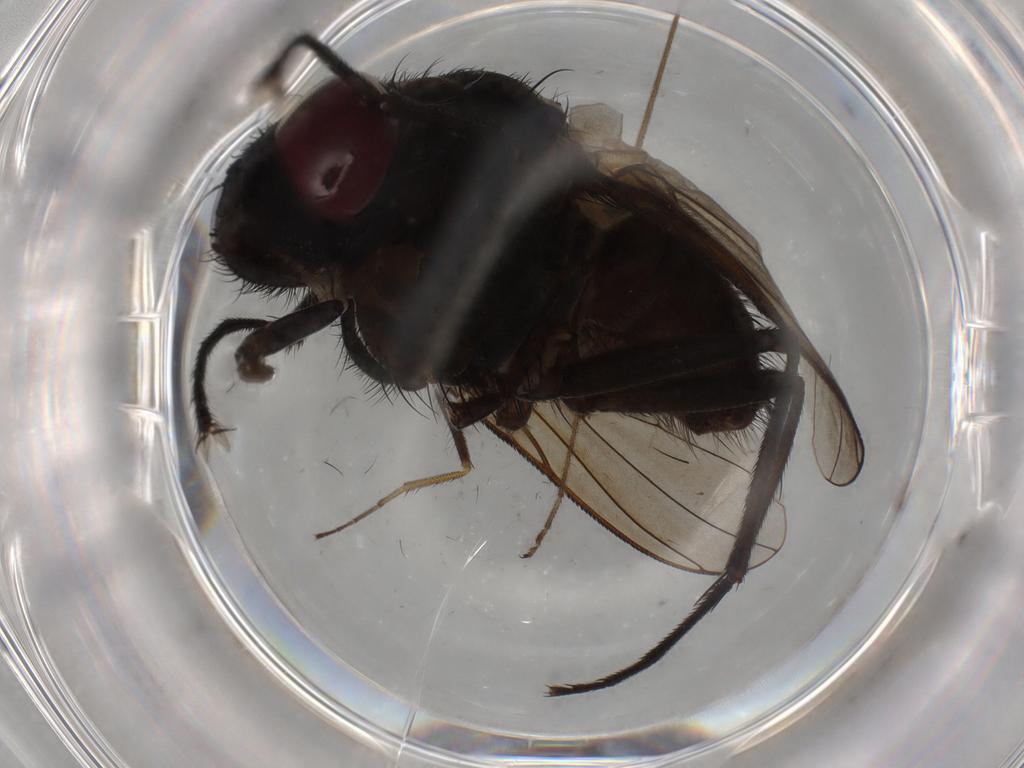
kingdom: Animalia
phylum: Arthropoda
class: Insecta
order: Diptera
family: Muscidae
